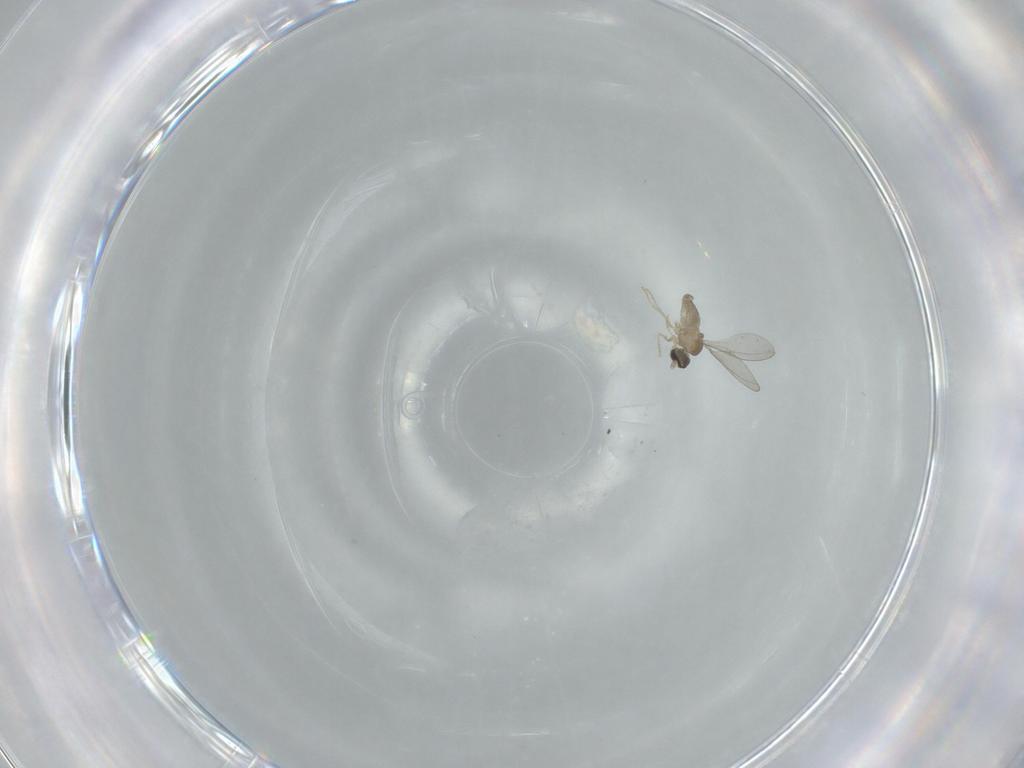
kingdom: Animalia
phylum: Arthropoda
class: Insecta
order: Diptera
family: Cecidomyiidae
